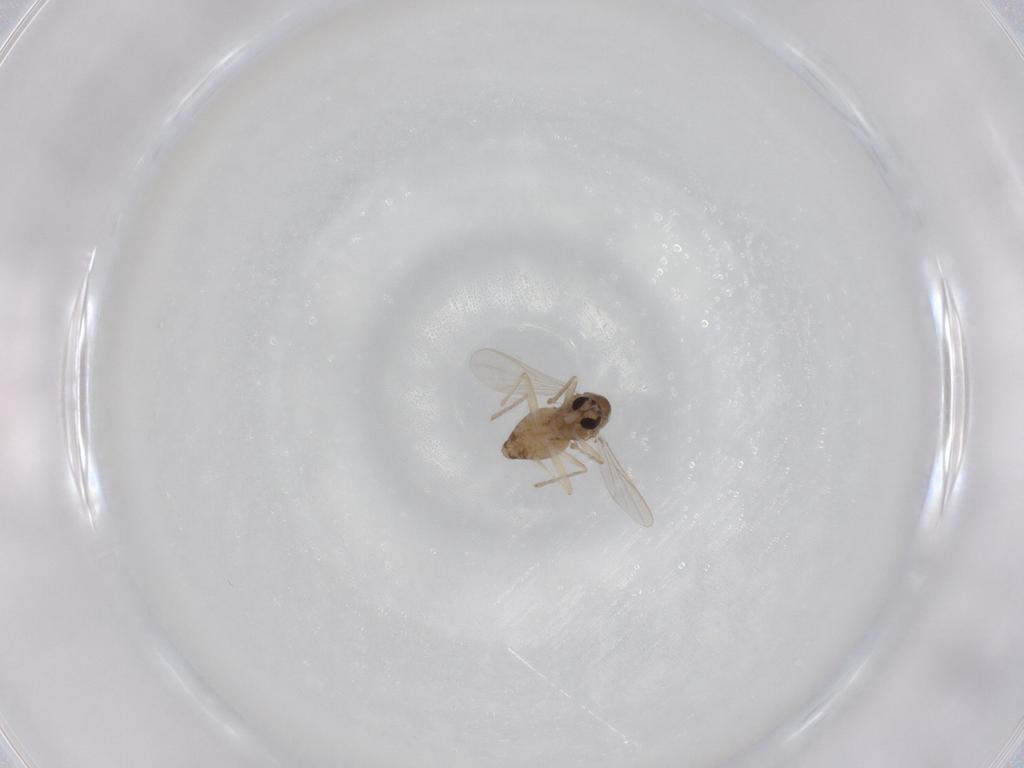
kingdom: Animalia
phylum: Arthropoda
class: Insecta
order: Diptera
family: Chironomidae
